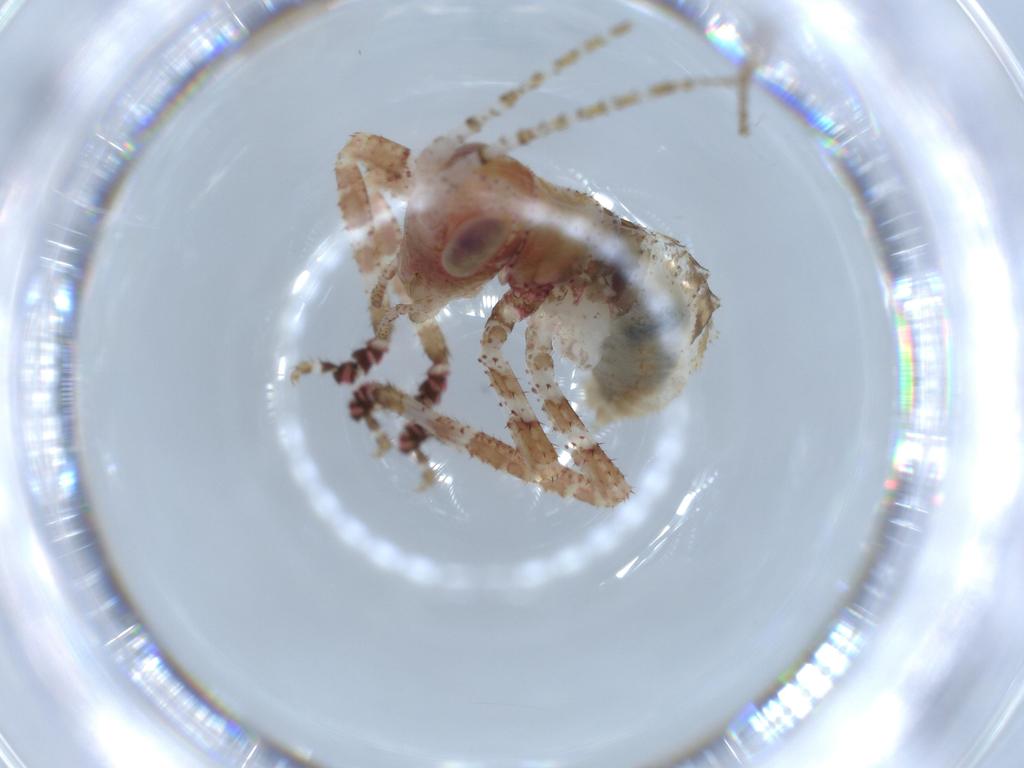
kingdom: Animalia
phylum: Arthropoda
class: Insecta
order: Orthoptera
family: Tettigoniidae
